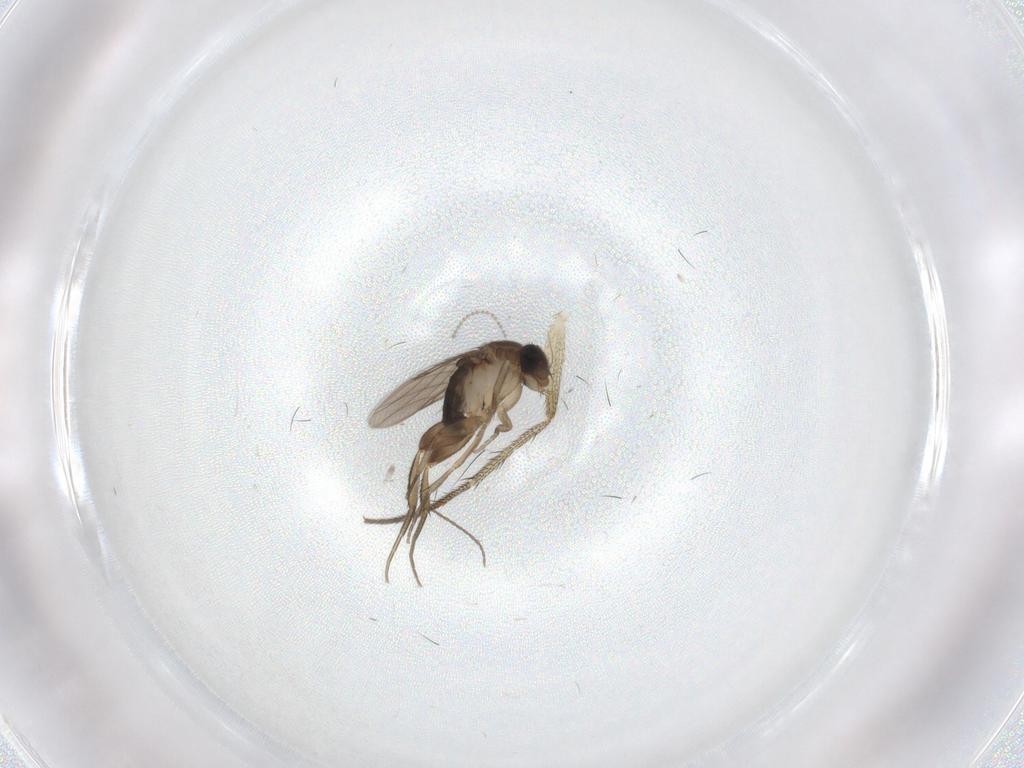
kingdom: Animalia
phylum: Arthropoda
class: Insecta
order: Diptera
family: Phoridae
